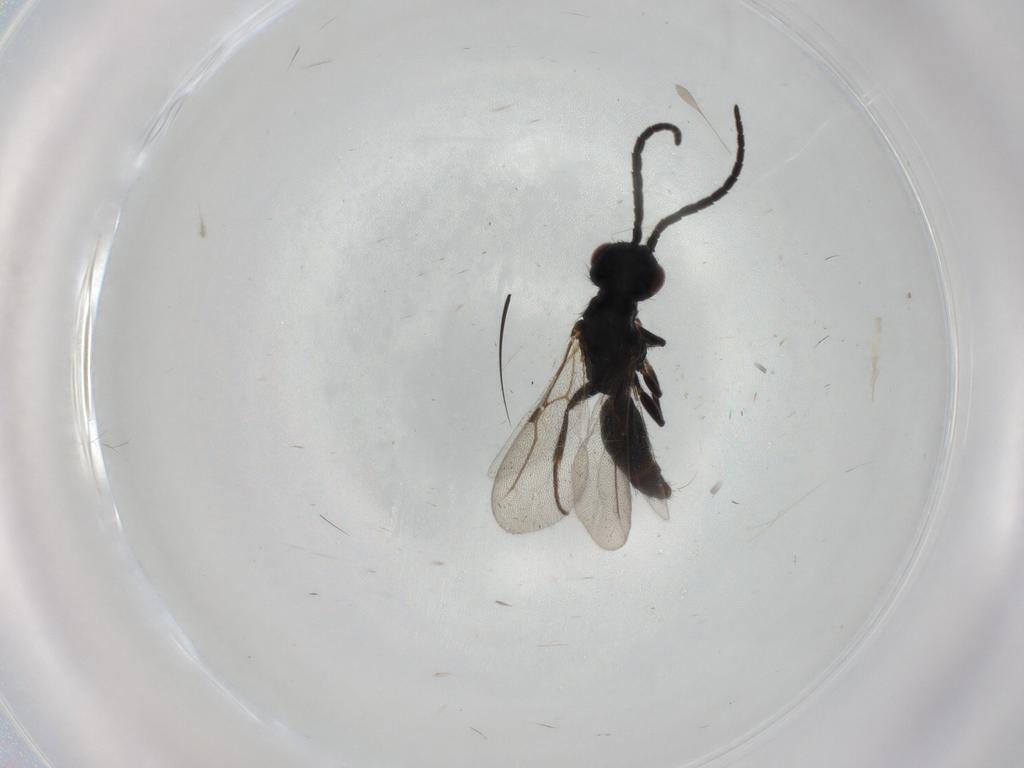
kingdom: Animalia
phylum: Arthropoda
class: Insecta
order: Hymenoptera
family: Bethylidae
